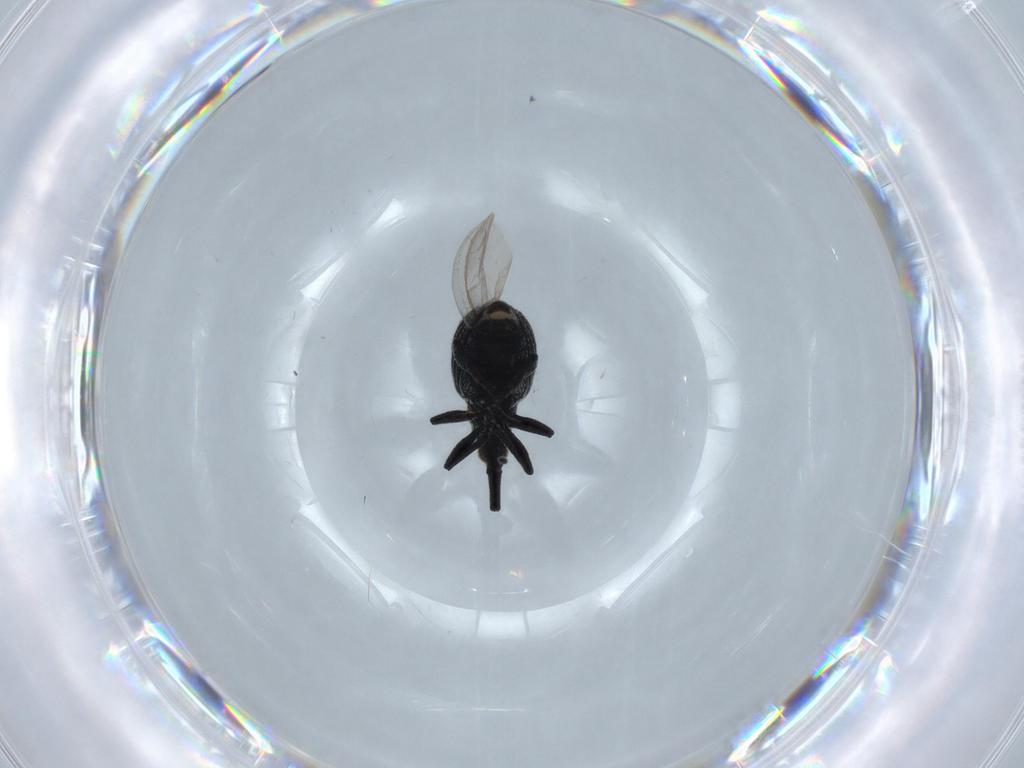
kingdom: Animalia
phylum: Arthropoda
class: Insecta
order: Coleoptera
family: Brentidae
